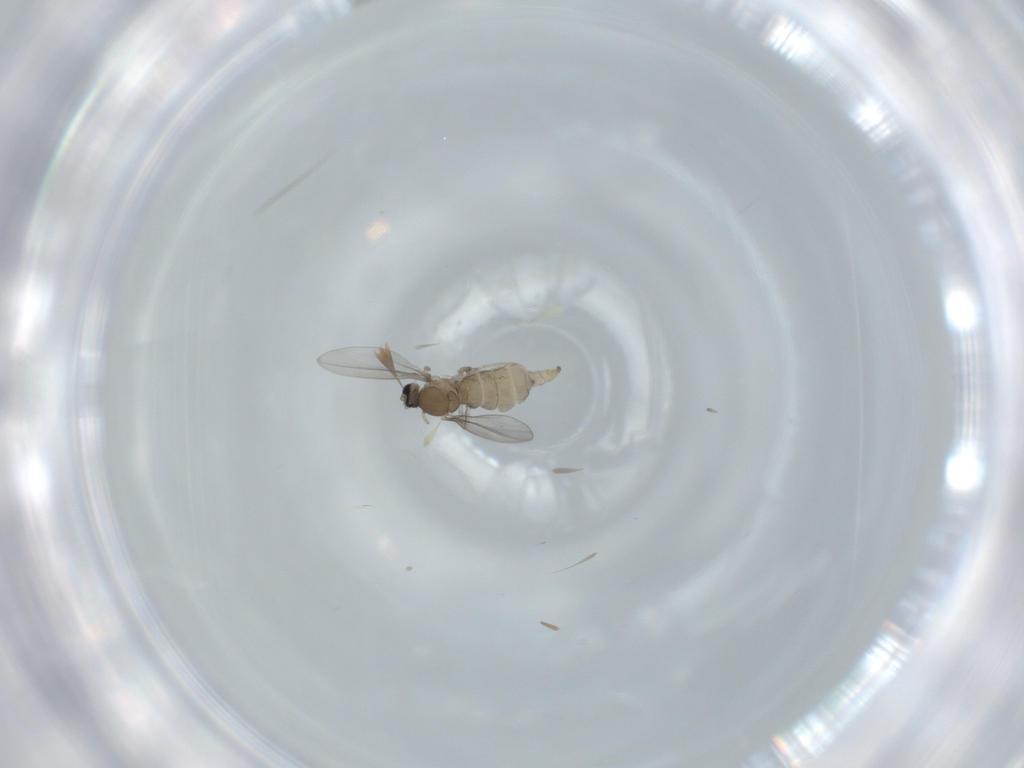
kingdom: Animalia
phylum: Arthropoda
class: Insecta
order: Diptera
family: Cecidomyiidae
